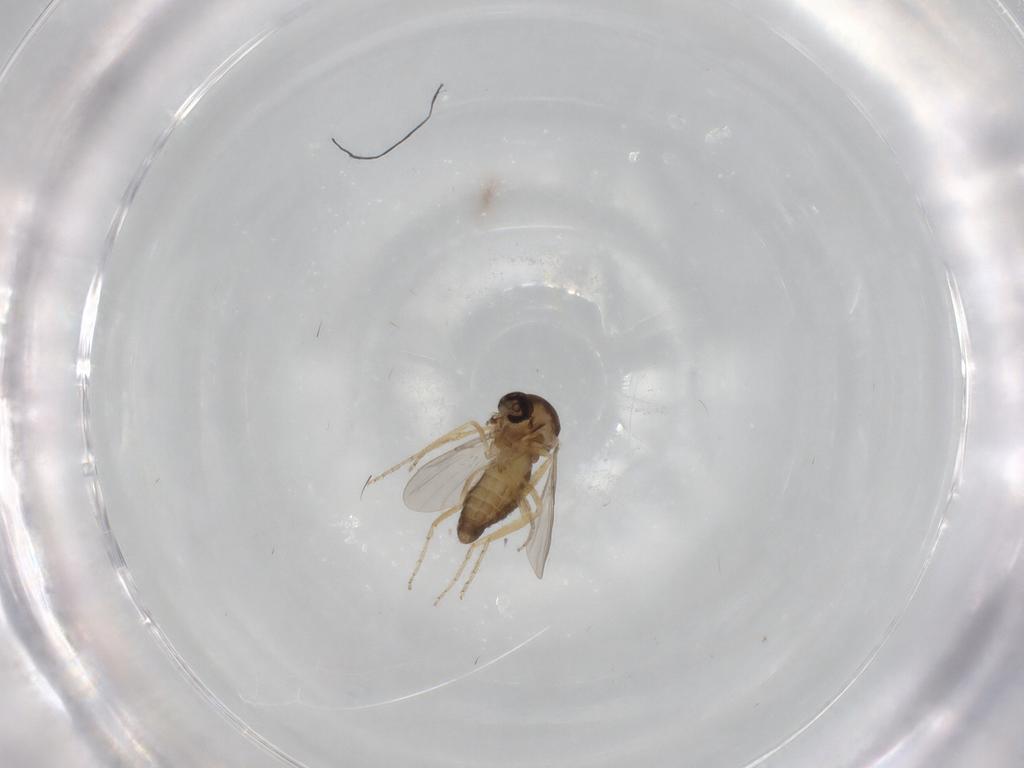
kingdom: Animalia
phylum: Arthropoda
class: Insecta
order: Diptera
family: Ceratopogonidae
